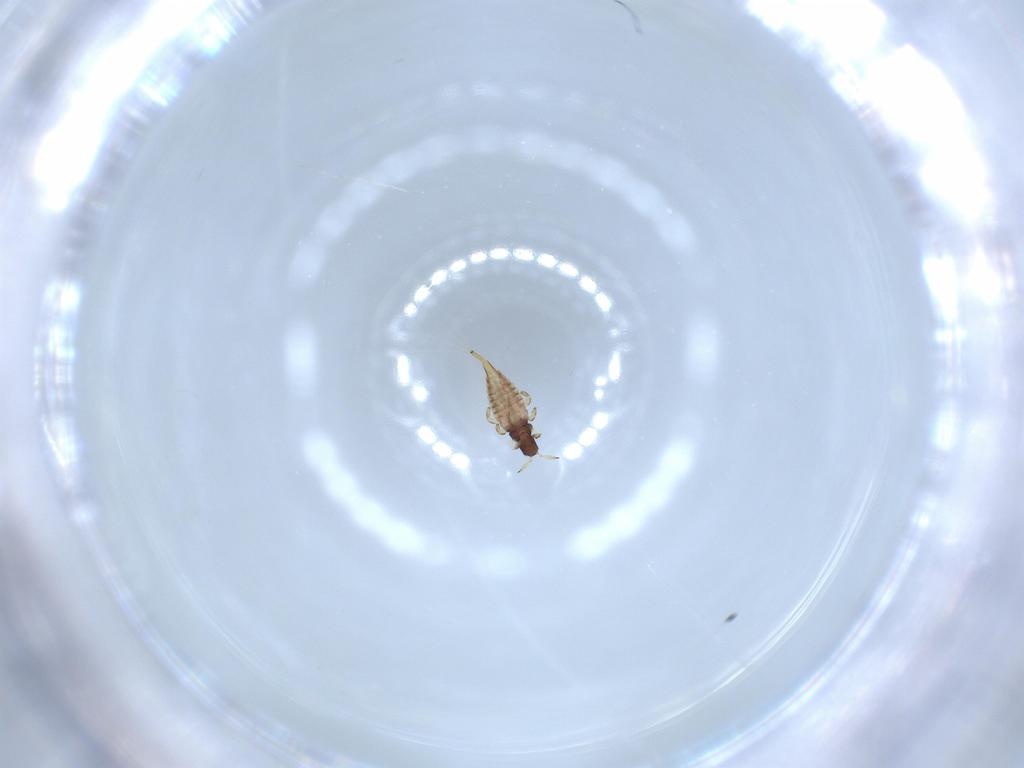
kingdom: Animalia
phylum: Arthropoda
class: Insecta
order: Thysanoptera
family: Phlaeothripidae
